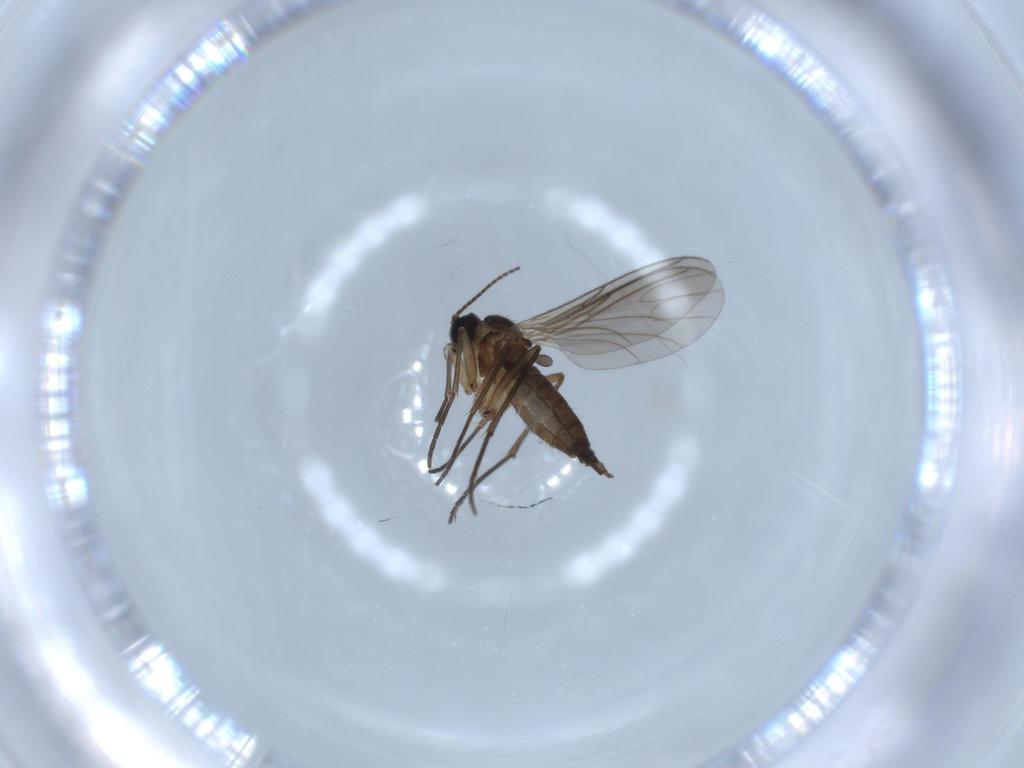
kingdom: Animalia
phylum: Arthropoda
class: Insecta
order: Diptera
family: Sciaridae
